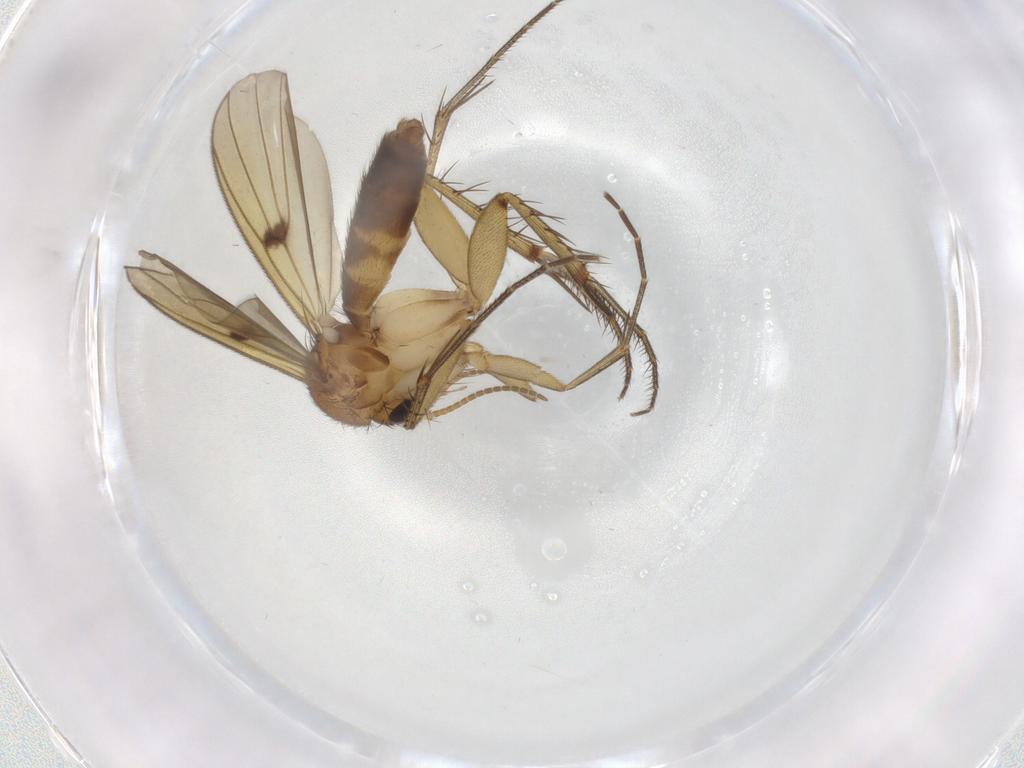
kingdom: Animalia
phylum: Arthropoda
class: Insecta
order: Diptera
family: Mycetophilidae
